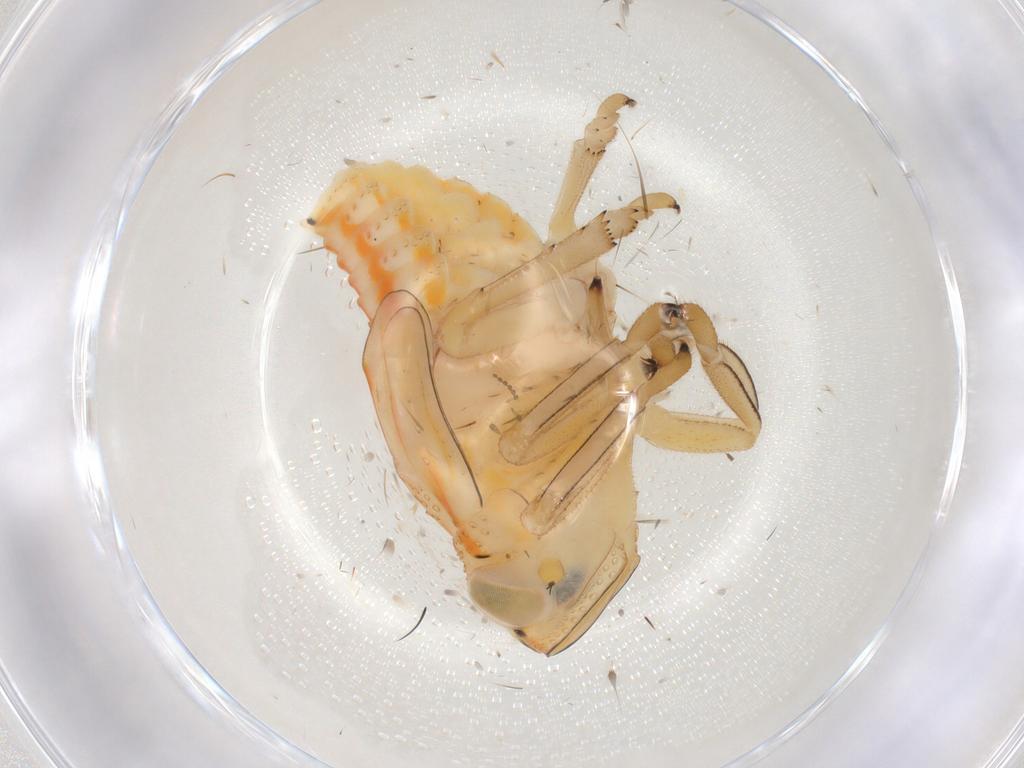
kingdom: Animalia
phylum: Arthropoda
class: Insecta
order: Hemiptera
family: Issidae
